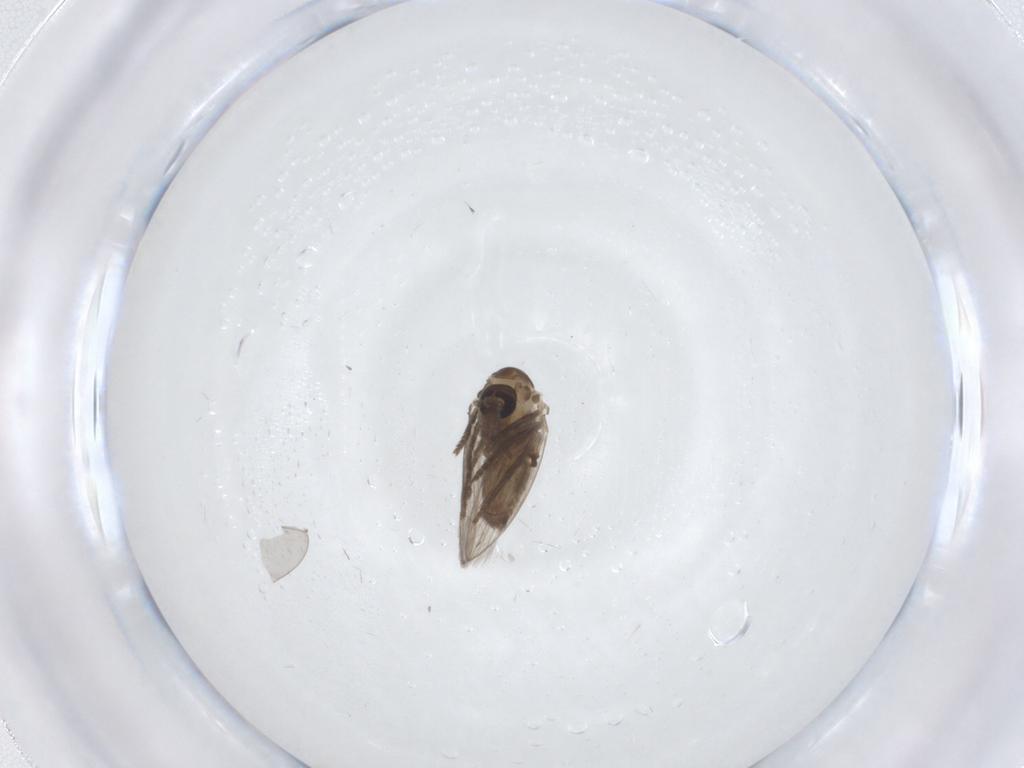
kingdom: Animalia
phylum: Arthropoda
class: Insecta
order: Diptera
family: Psychodidae
